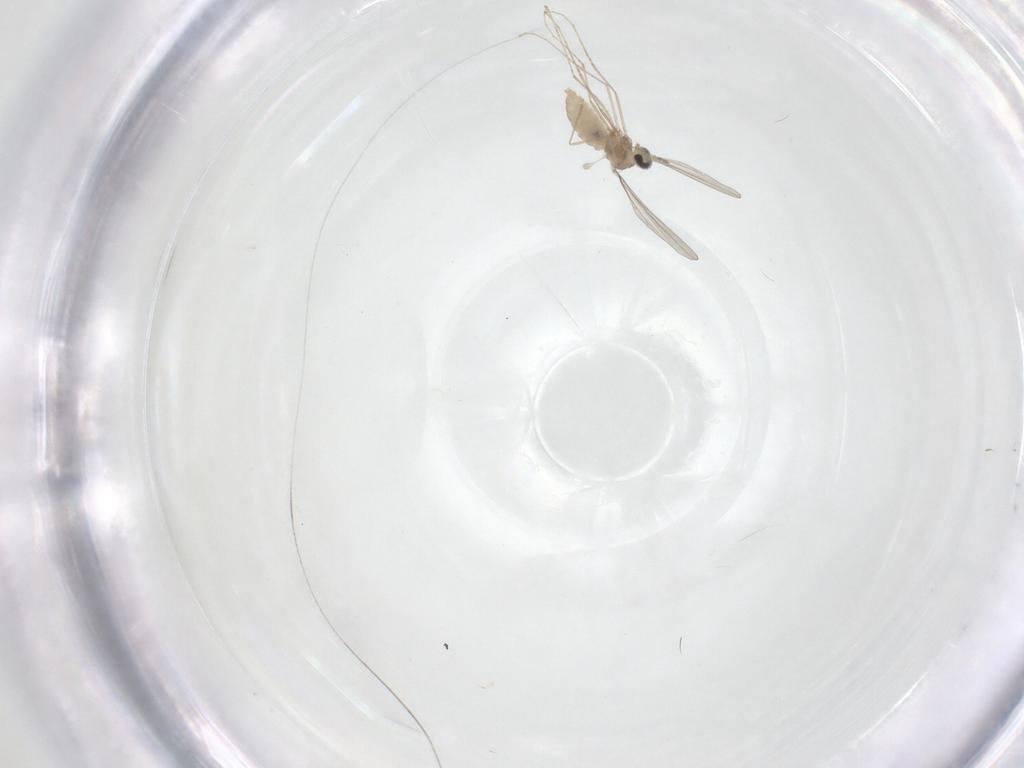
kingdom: Animalia
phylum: Arthropoda
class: Insecta
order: Diptera
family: Cecidomyiidae
